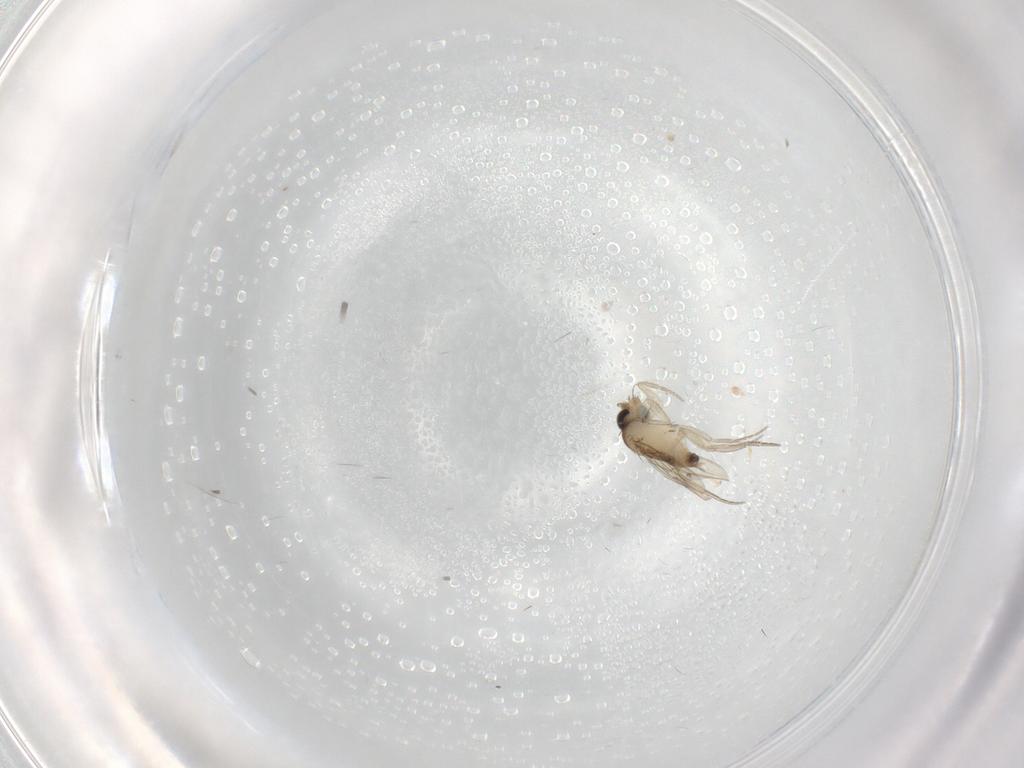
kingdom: Animalia
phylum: Arthropoda
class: Insecta
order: Diptera
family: Phoridae
